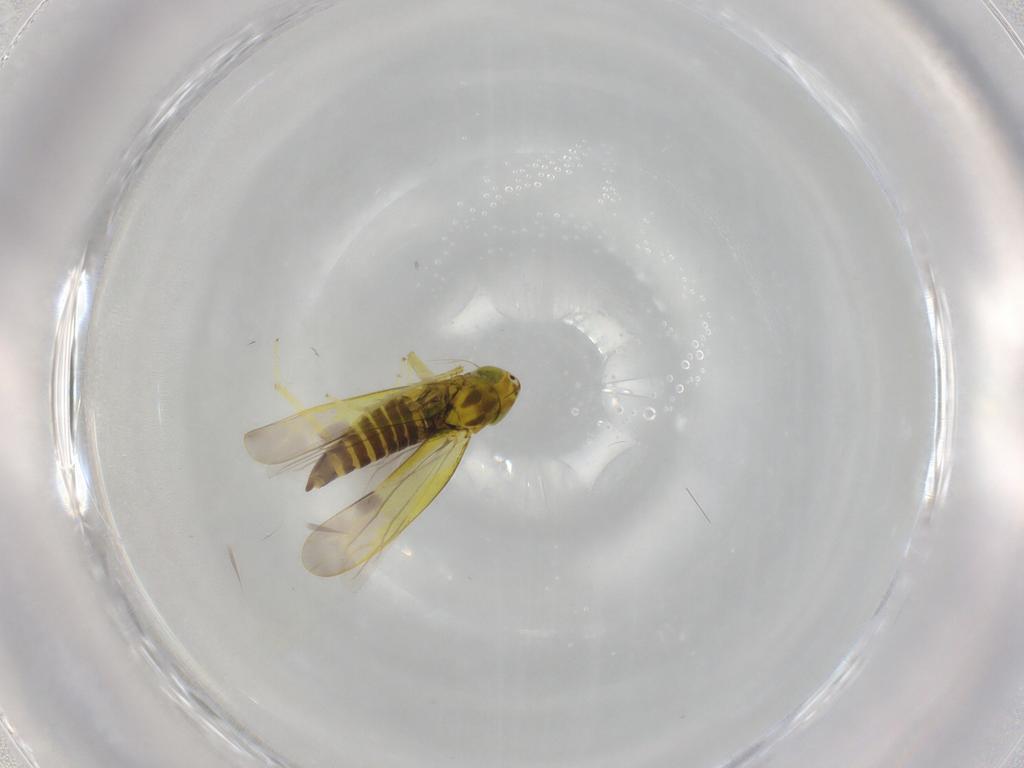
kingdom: Animalia
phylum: Arthropoda
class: Insecta
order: Hemiptera
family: Cicadellidae
